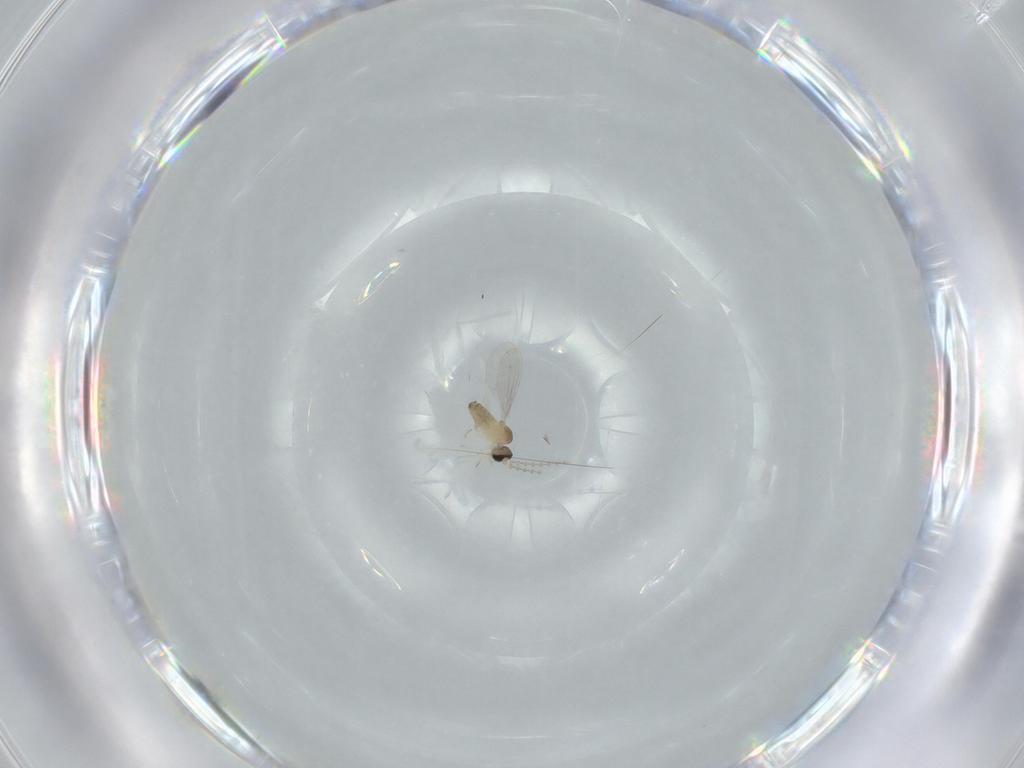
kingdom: Animalia
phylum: Arthropoda
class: Insecta
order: Diptera
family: Cecidomyiidae
